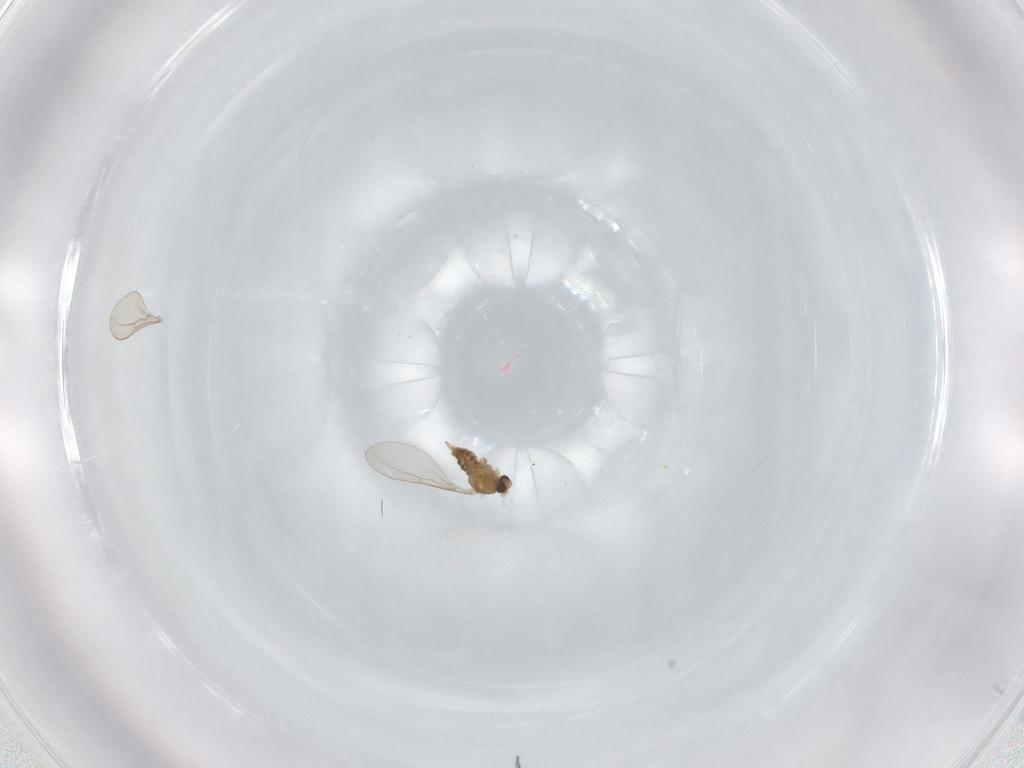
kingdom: Animalia
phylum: Arthropoda
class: Insecta
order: Diptera
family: Cecidomyiidae
